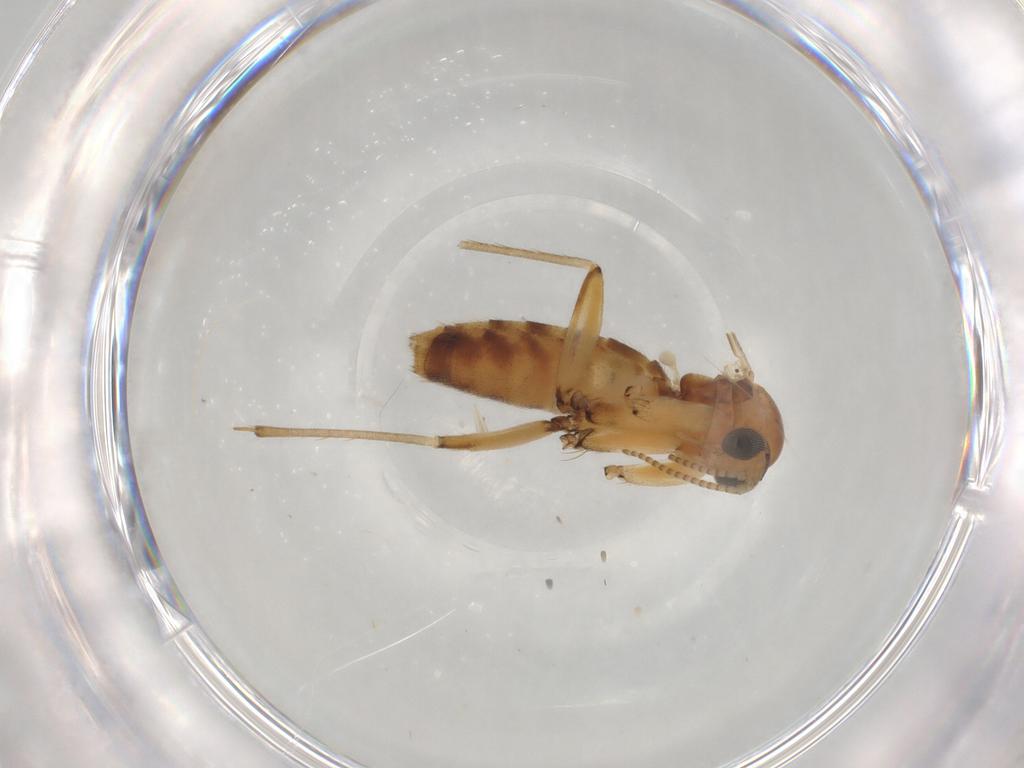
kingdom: Animalia
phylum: Arthropoda
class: Insecta
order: Diptera
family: Mycetophilidae
